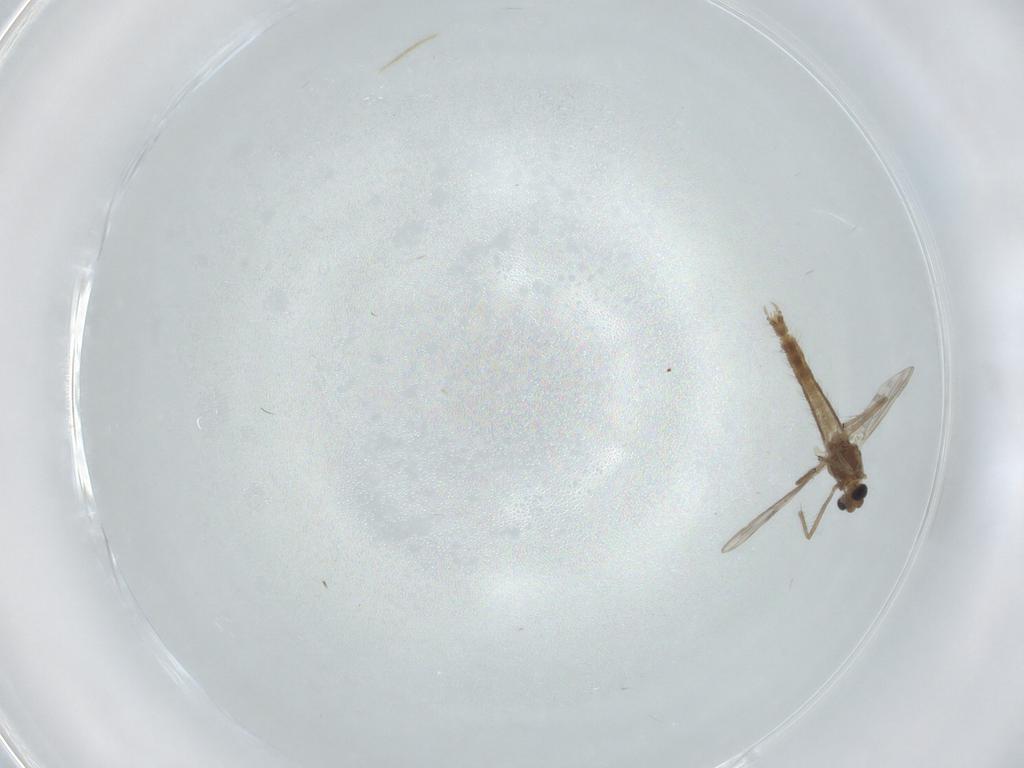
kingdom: Animalia
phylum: Arthropoda
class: Insecta
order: Diptera
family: Chironomidae
